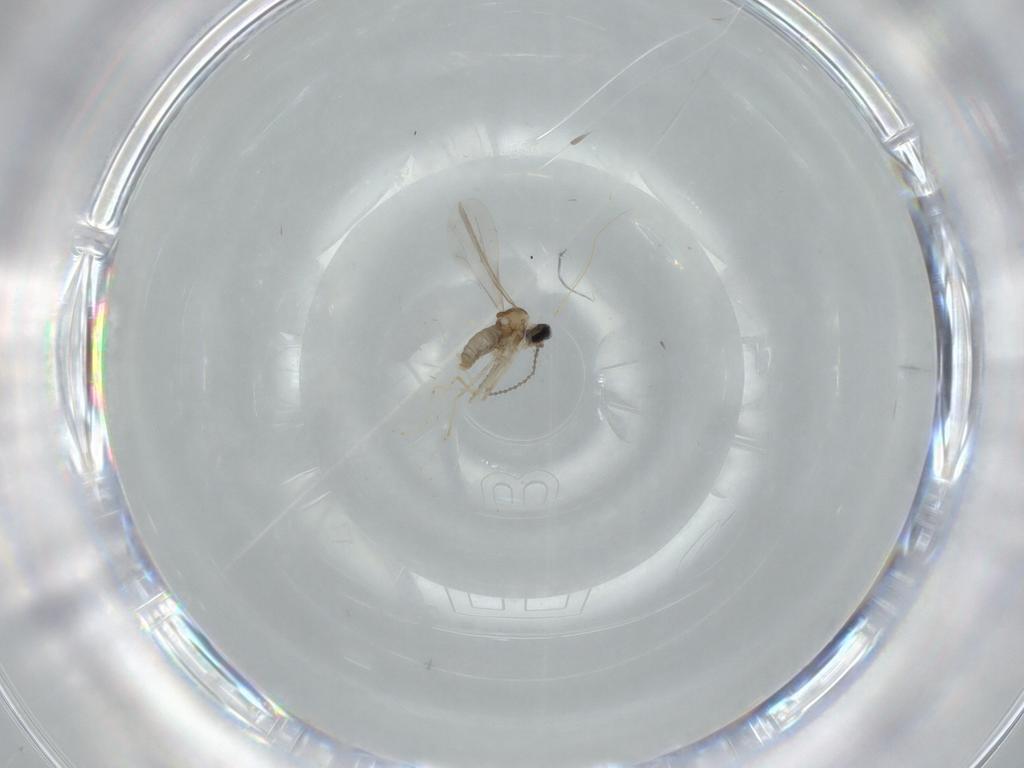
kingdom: Animalia
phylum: Arthropoda
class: Insecta
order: Diptera
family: Cecidomyiidae
